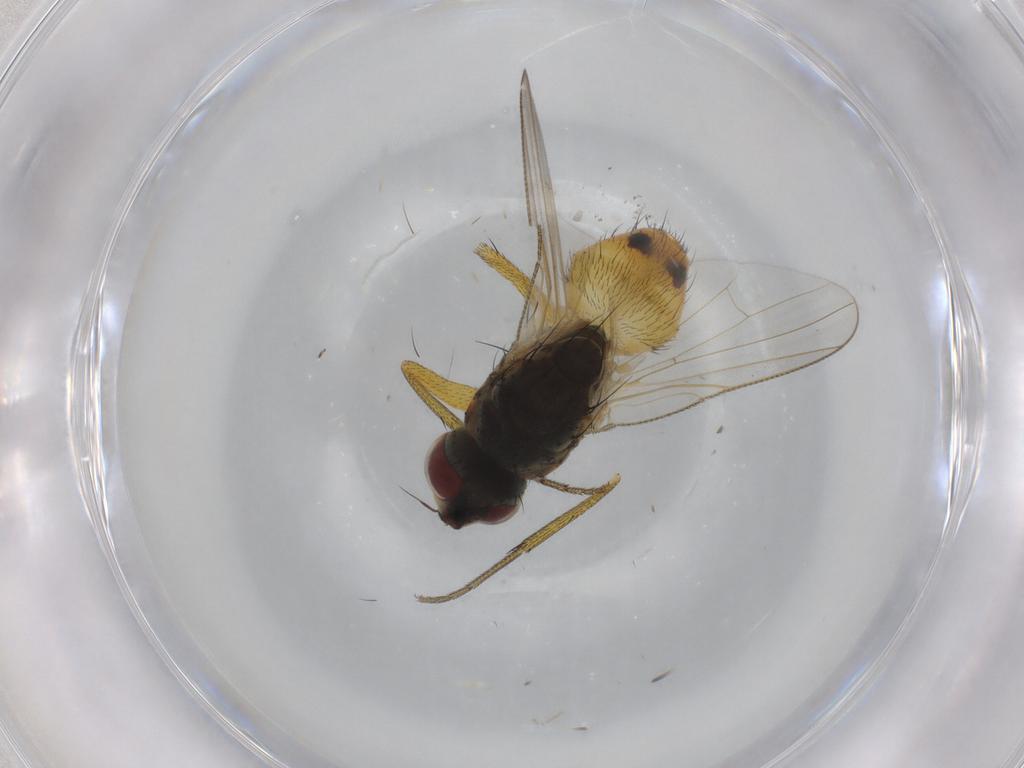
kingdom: Animalia
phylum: Arthropoda
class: Insecta
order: Diptera
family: Muscidae
